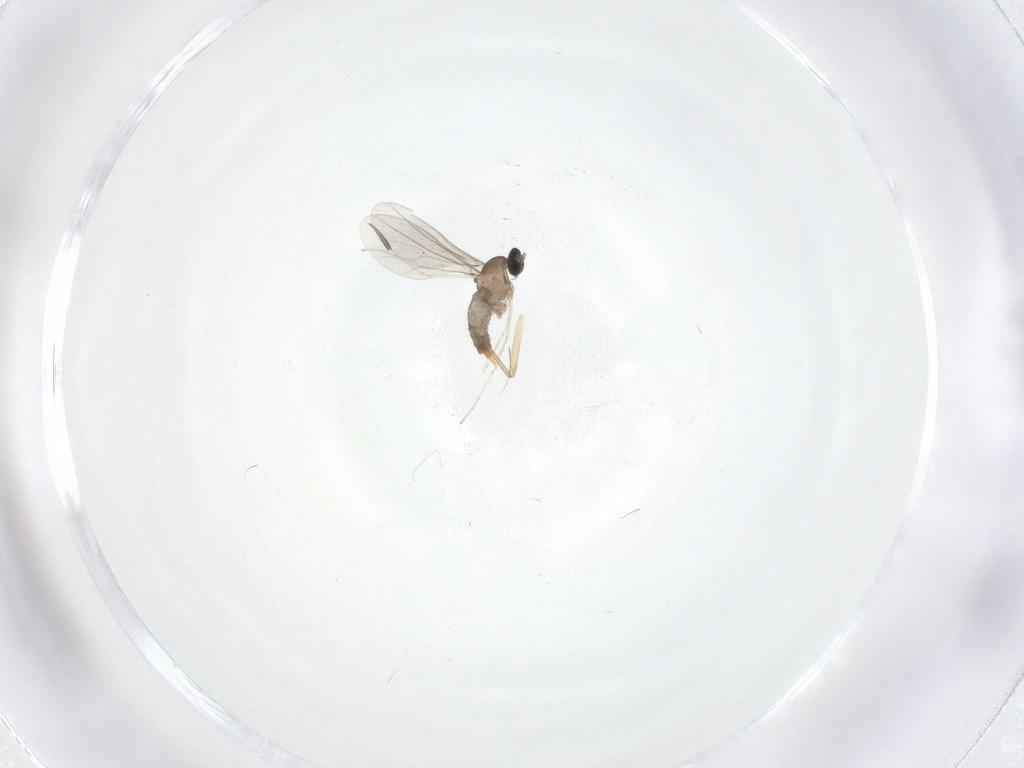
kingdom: Animalia
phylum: Arthropoda
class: Insecta
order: Diptera
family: Cecidomyiidae
